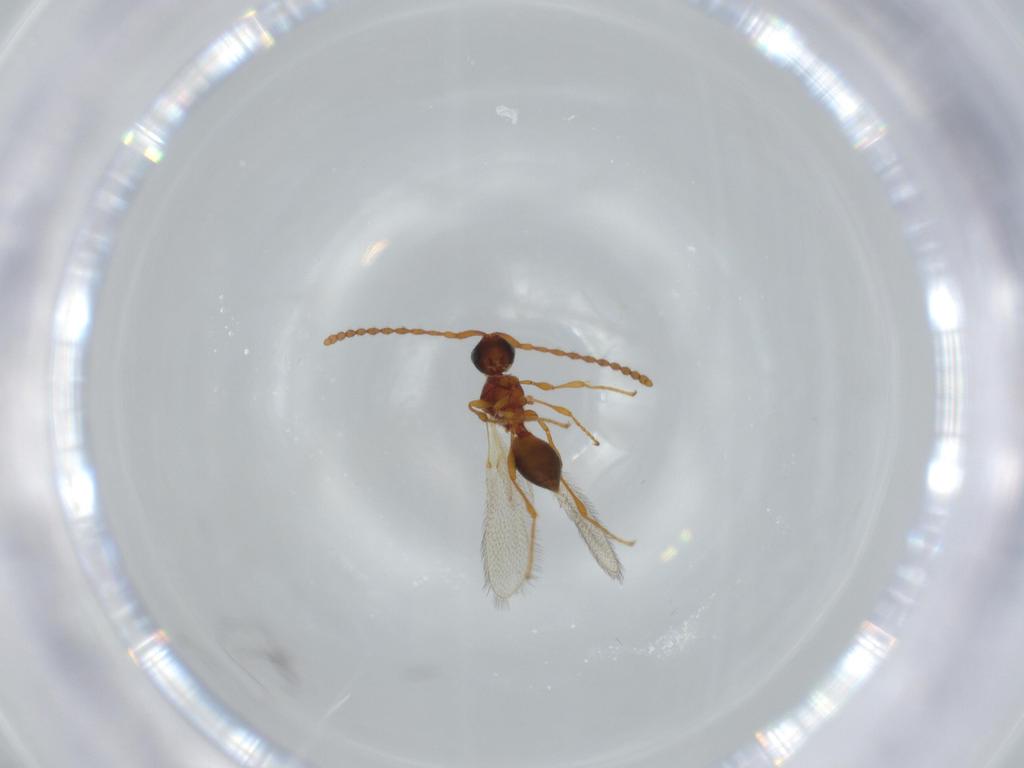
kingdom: Animalia
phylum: Arthropoda
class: Insecta
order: Hymenoptera
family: Diapriidae
